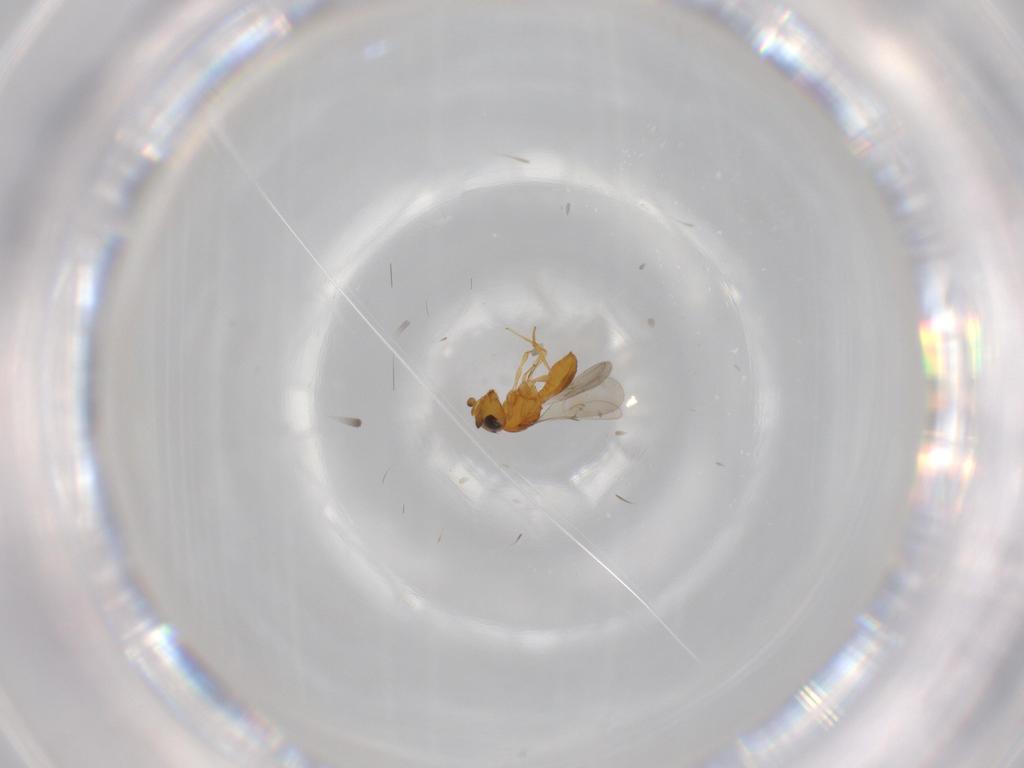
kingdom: Animalia
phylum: Arthropoda
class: Insecta
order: Hymenoptera
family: Scelionidae
